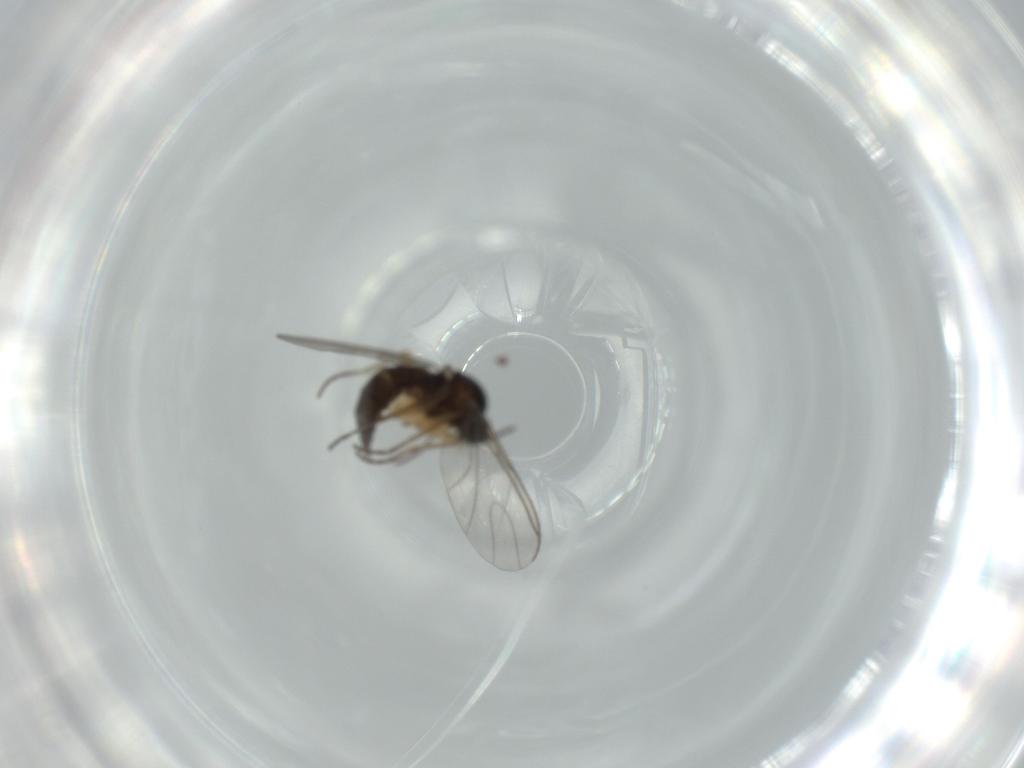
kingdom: Animalia
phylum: Arthropoda
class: Insecta
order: Diptera
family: Sciaridae
